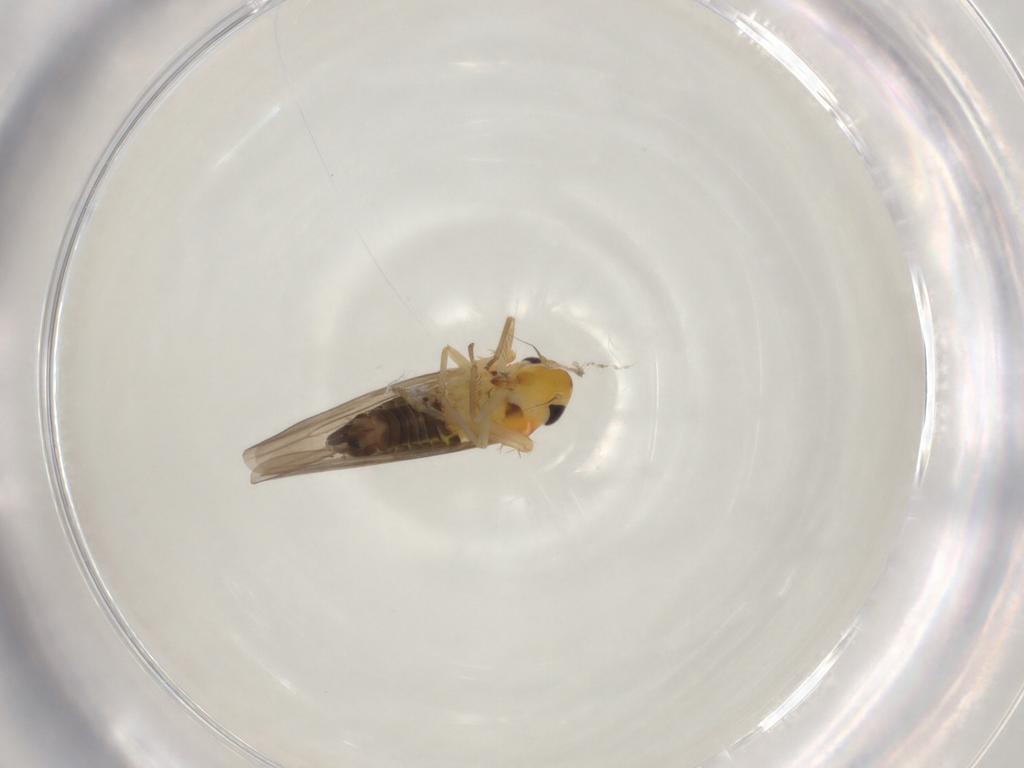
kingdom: Animalia
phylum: Arthropoda
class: Insecta
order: Hemiptera
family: Cicadellidae
